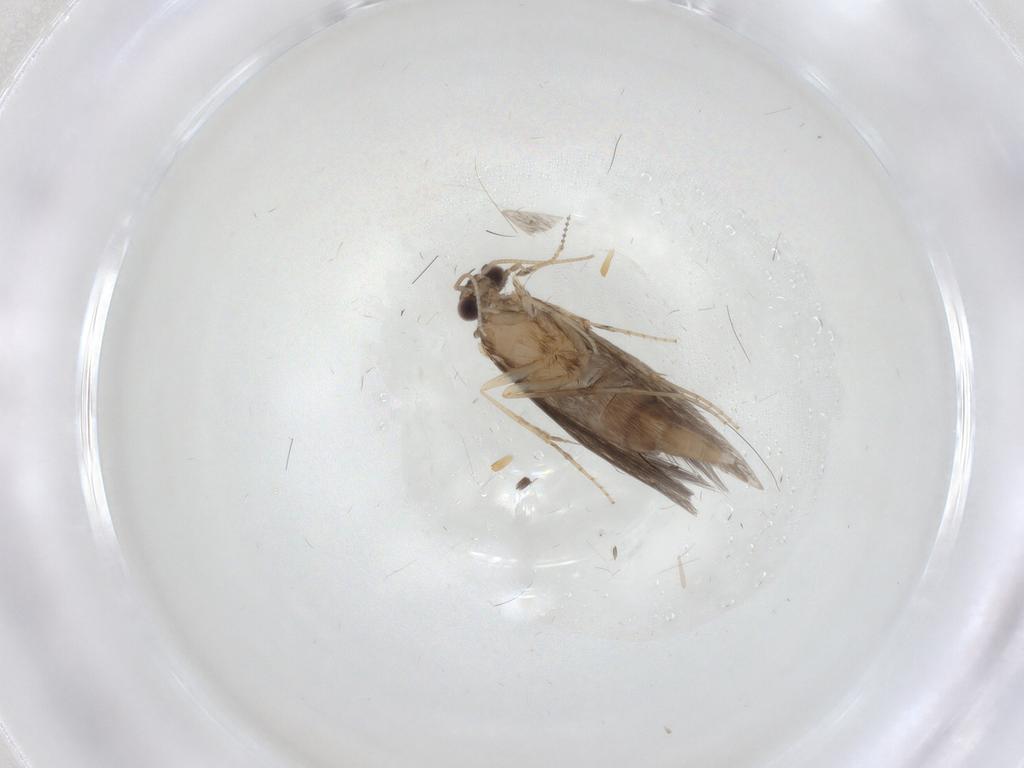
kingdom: Animalia
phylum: Arthropoda
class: Insecta
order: Trichoptera
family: Hydroptilidae
